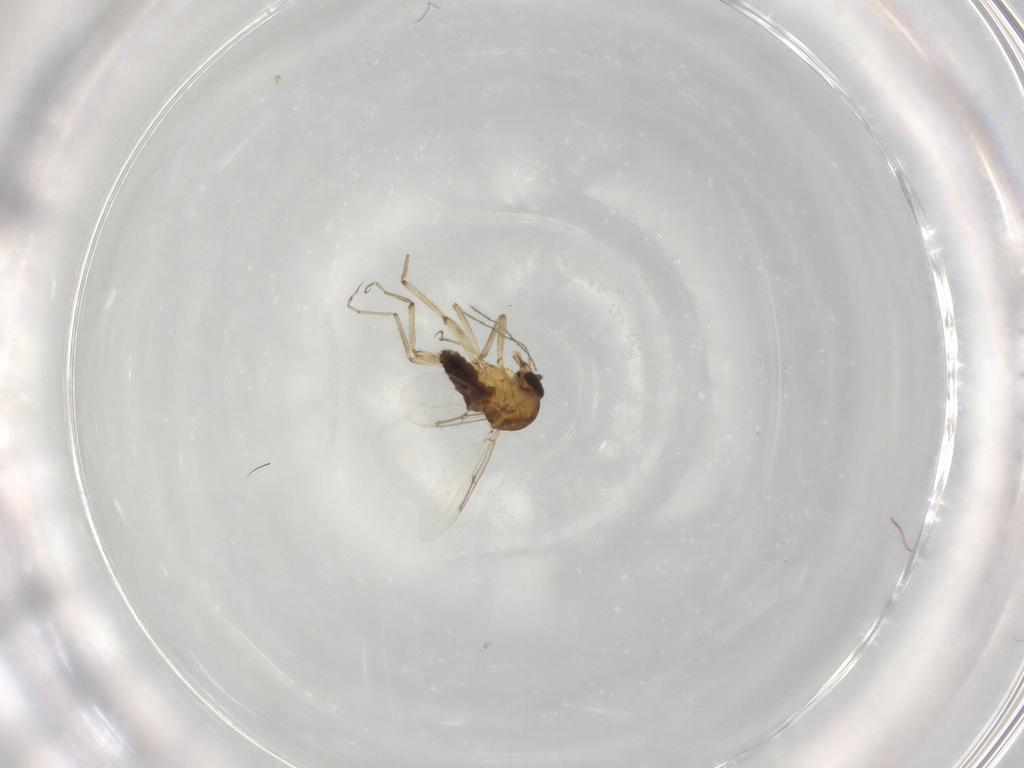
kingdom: Animalia
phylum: Arthropoda
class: Insecta
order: Diptera
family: Ceratopogonidae
